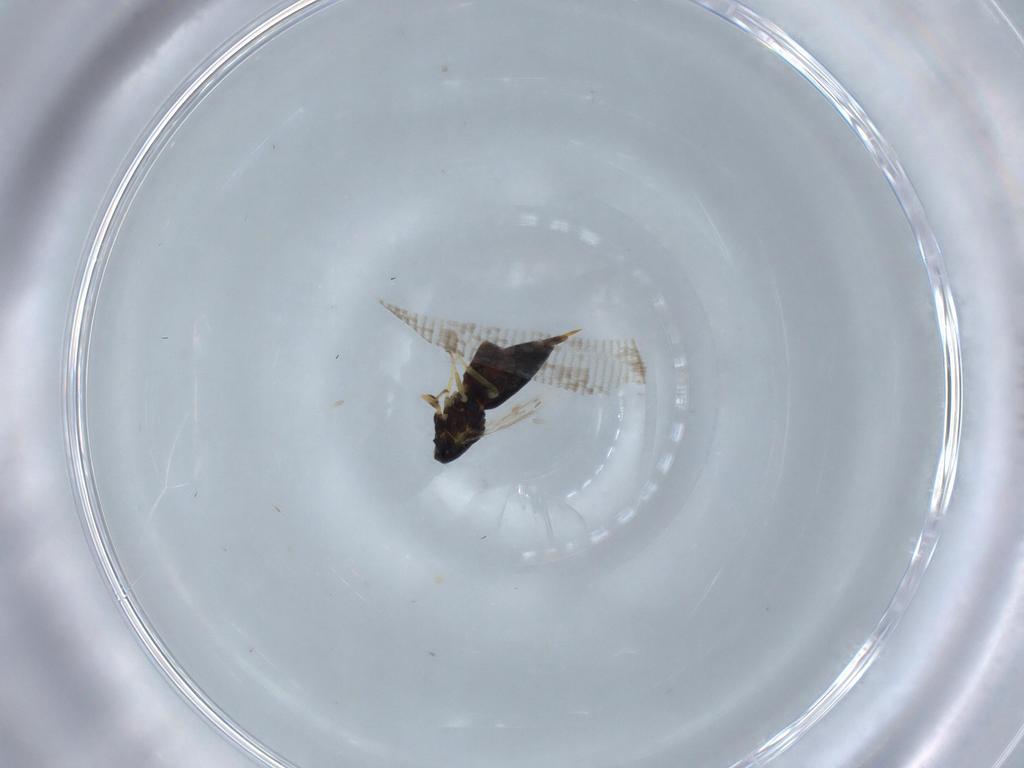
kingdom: Animalia
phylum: Arthropoda
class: Insecta
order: Hymenoptera
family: Eulophidae
